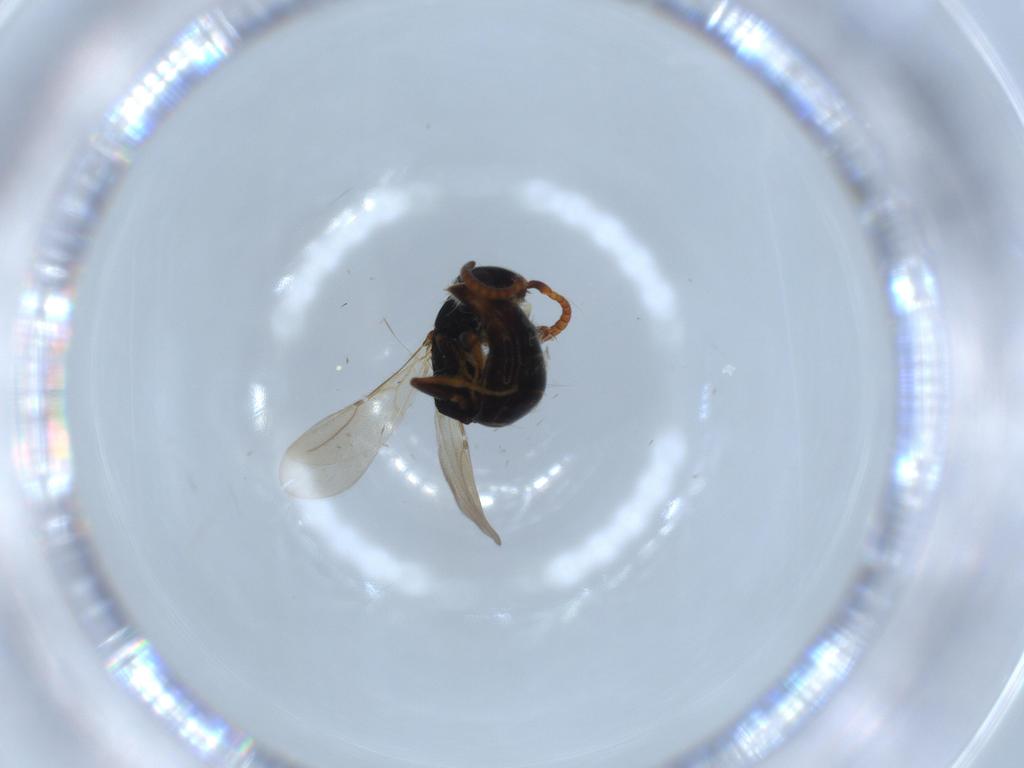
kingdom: Animalia
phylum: Arthropoda
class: Insecta
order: Hymenoptera
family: Bethylidae
